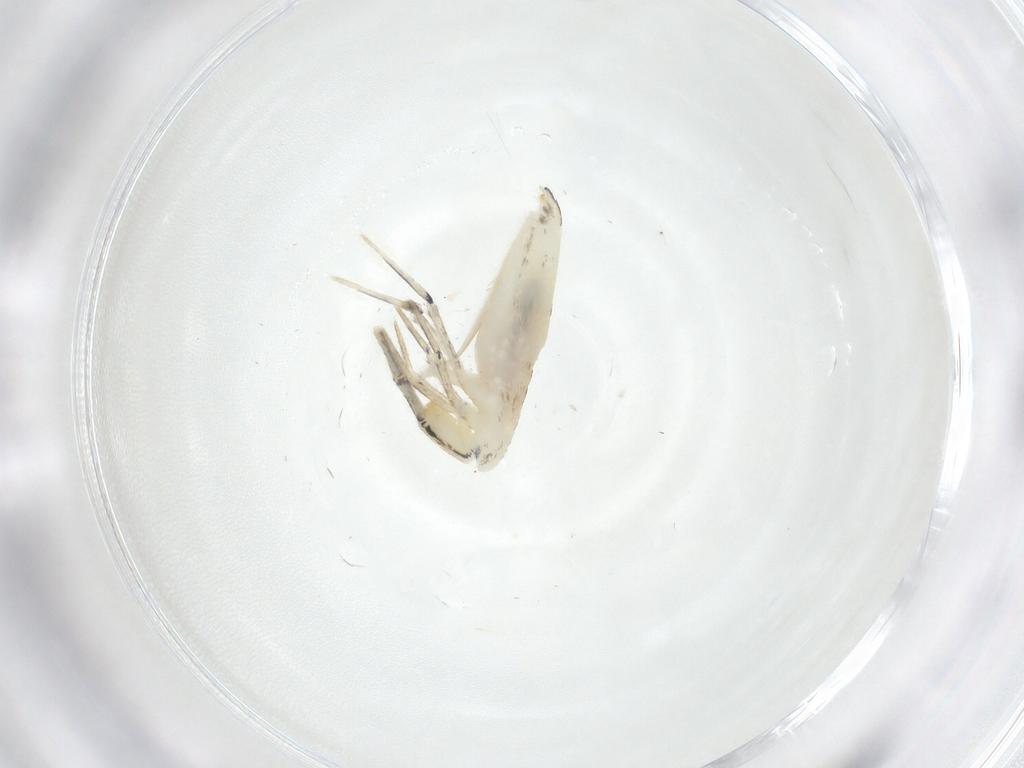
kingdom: Animalia
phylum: Arthropoda
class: Collembola
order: Entomobryomorpha
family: Entomobryidae
